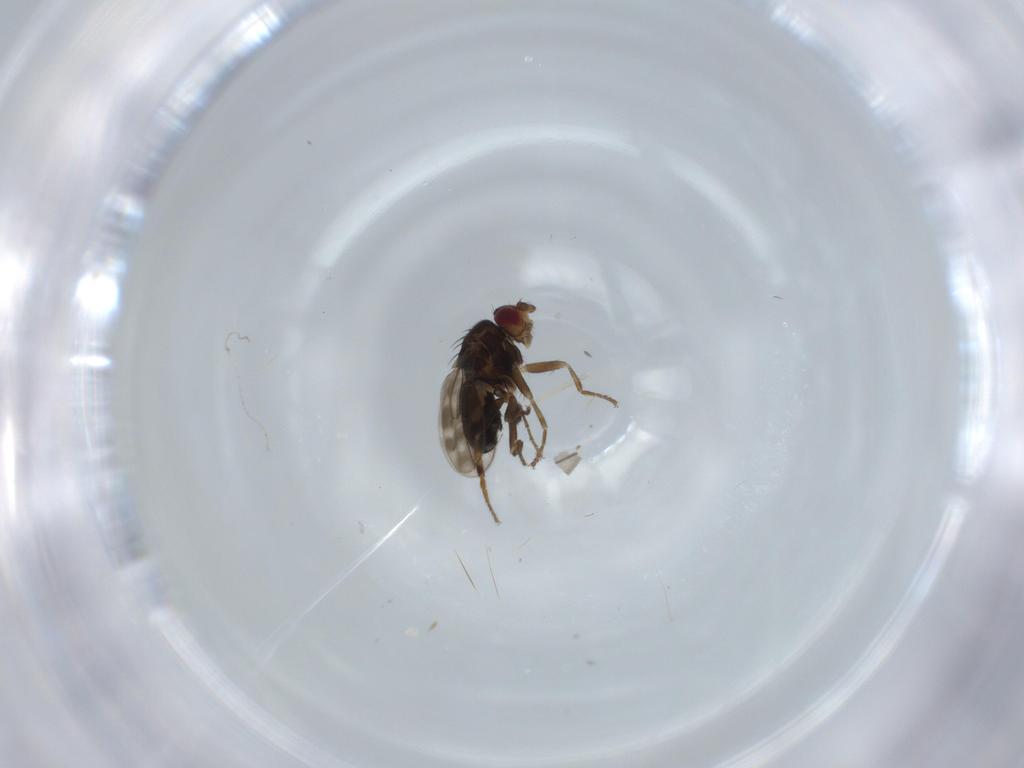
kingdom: Animalia
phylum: Arthropoda
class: Insecta
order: Diptera
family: Sphaeroceridae
